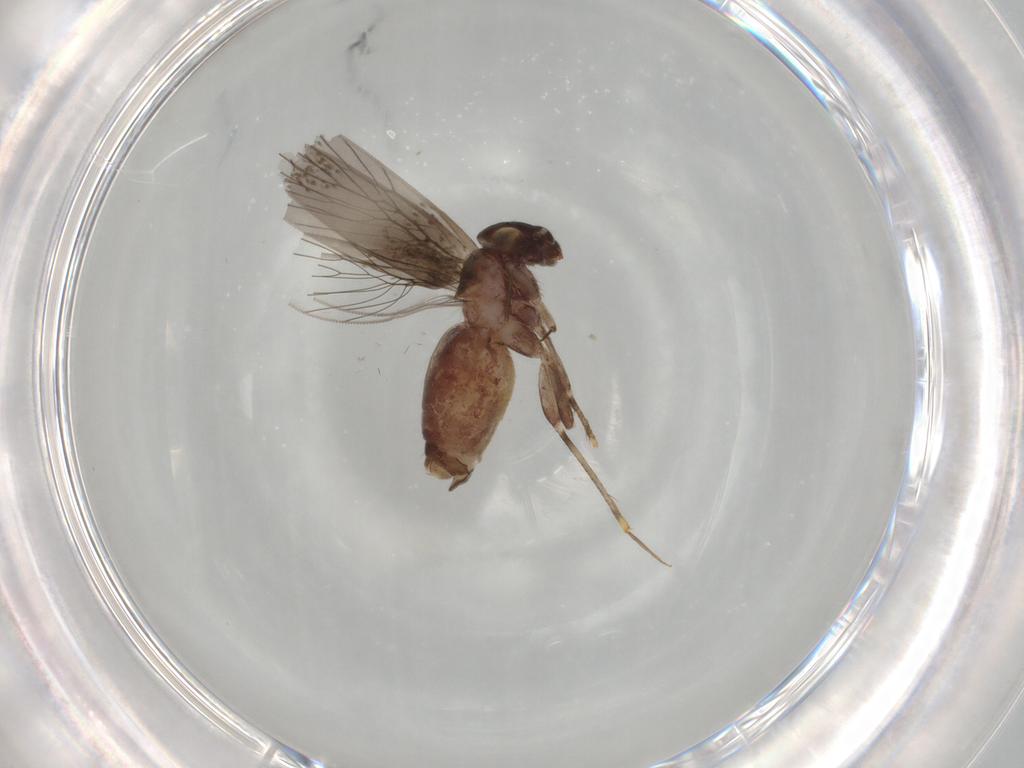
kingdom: Animalia
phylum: Arthropoda
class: Insecta
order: Psocodea
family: Lepidopsocidae
